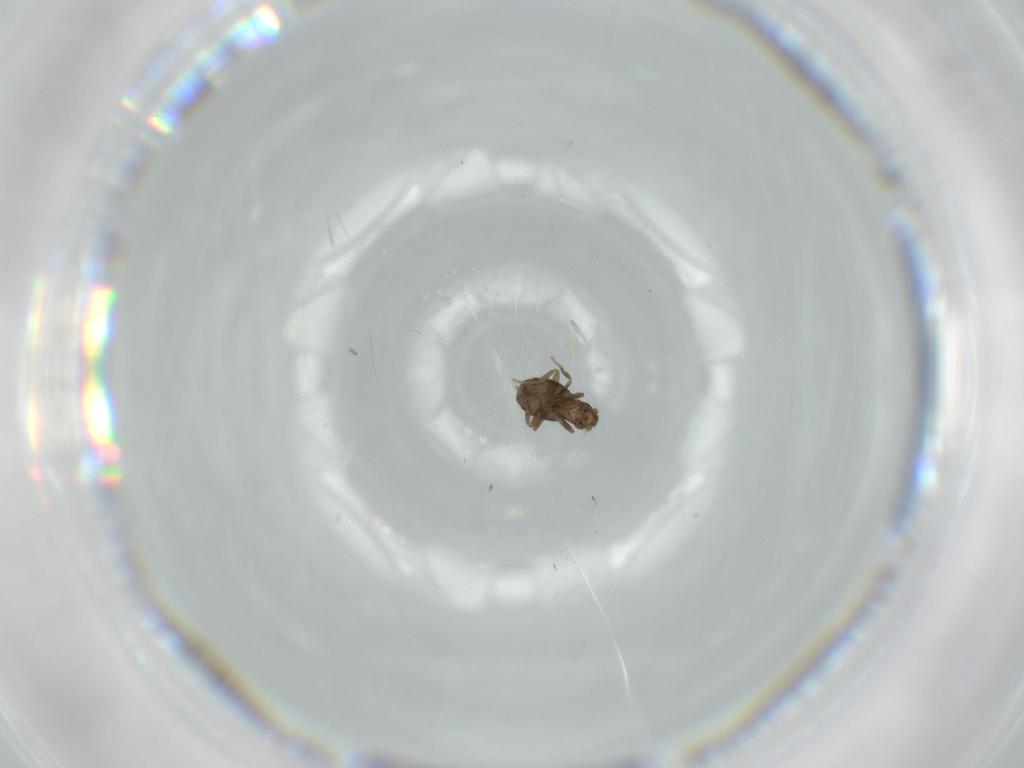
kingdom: Animalia
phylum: Arthropoda
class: Insecta
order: Diptera
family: Phoridae
